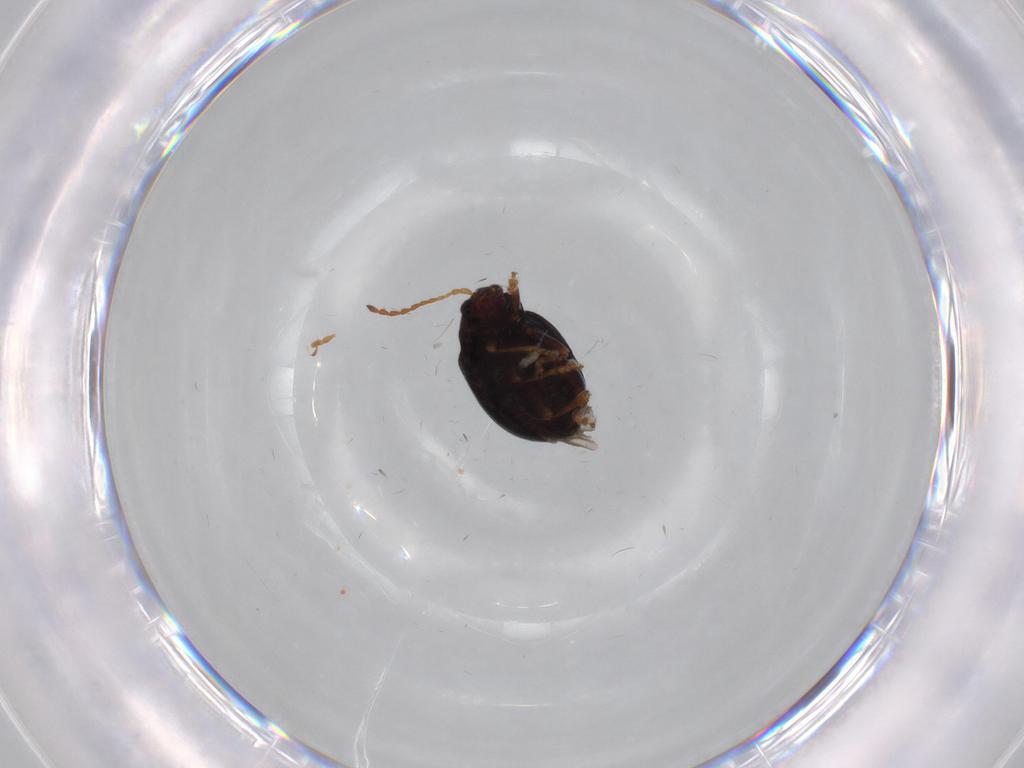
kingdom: Animalia
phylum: Arthropoda
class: Insecta
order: Coleoptera
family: Chrysomelidae
